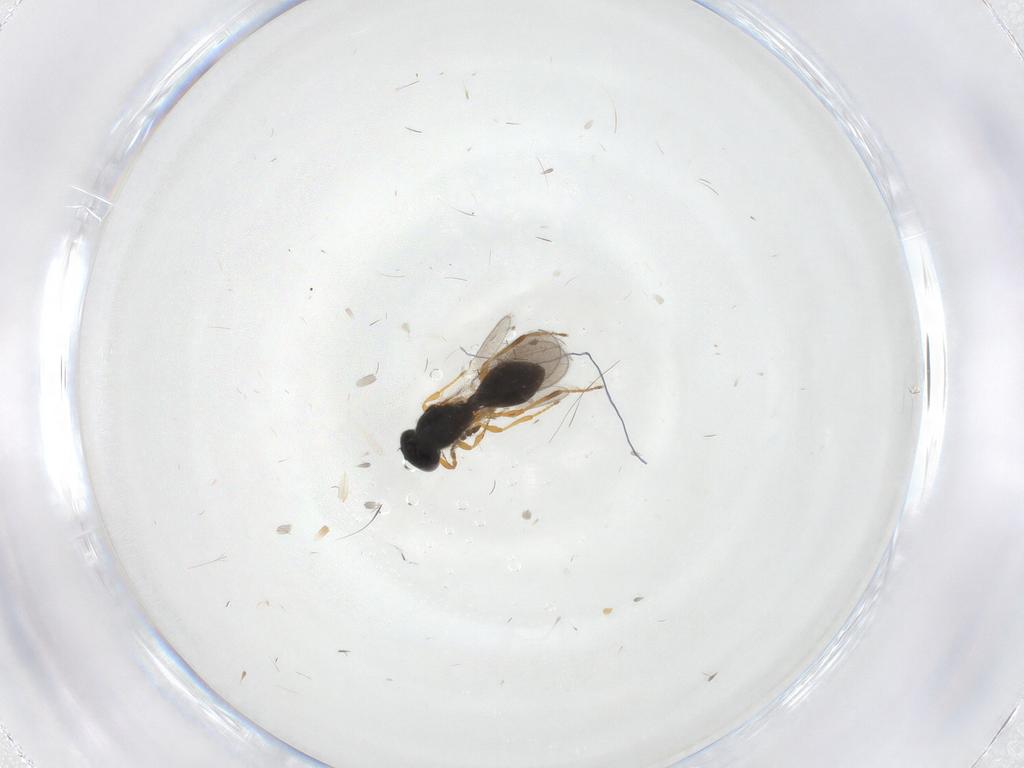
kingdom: Animalia
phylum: Arthropoda
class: Insecta
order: Hymenoptera
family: Platygastridae
